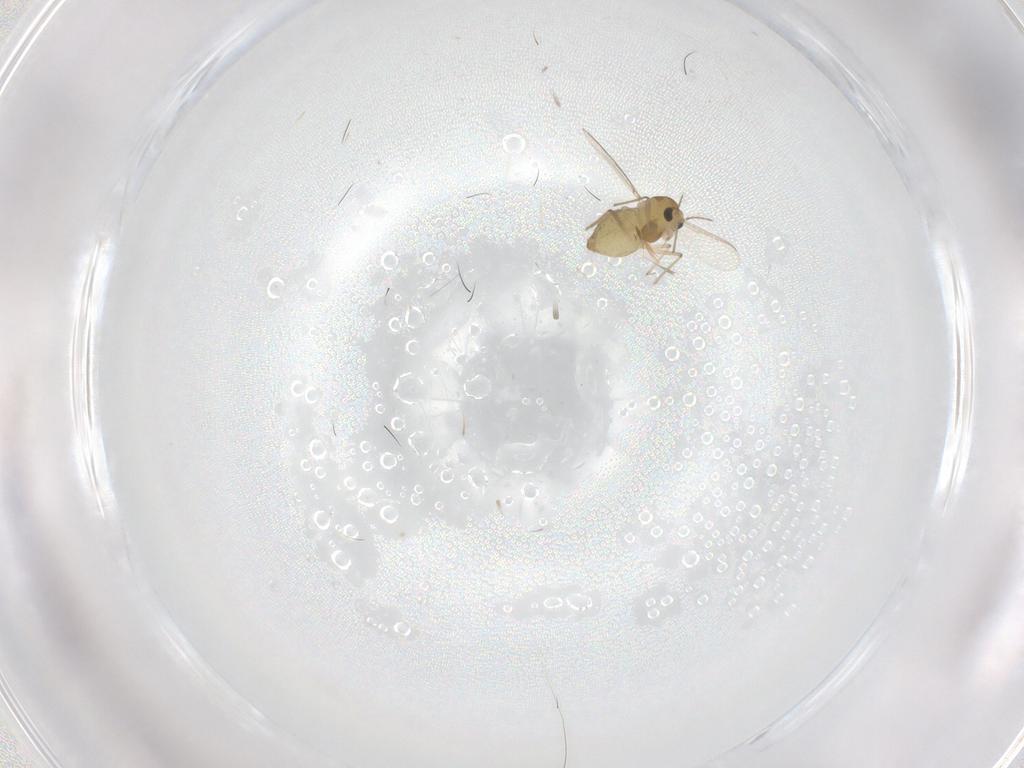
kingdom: Animalia
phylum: Arthropoda
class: Insecta
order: Diptera
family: Chironomidae
